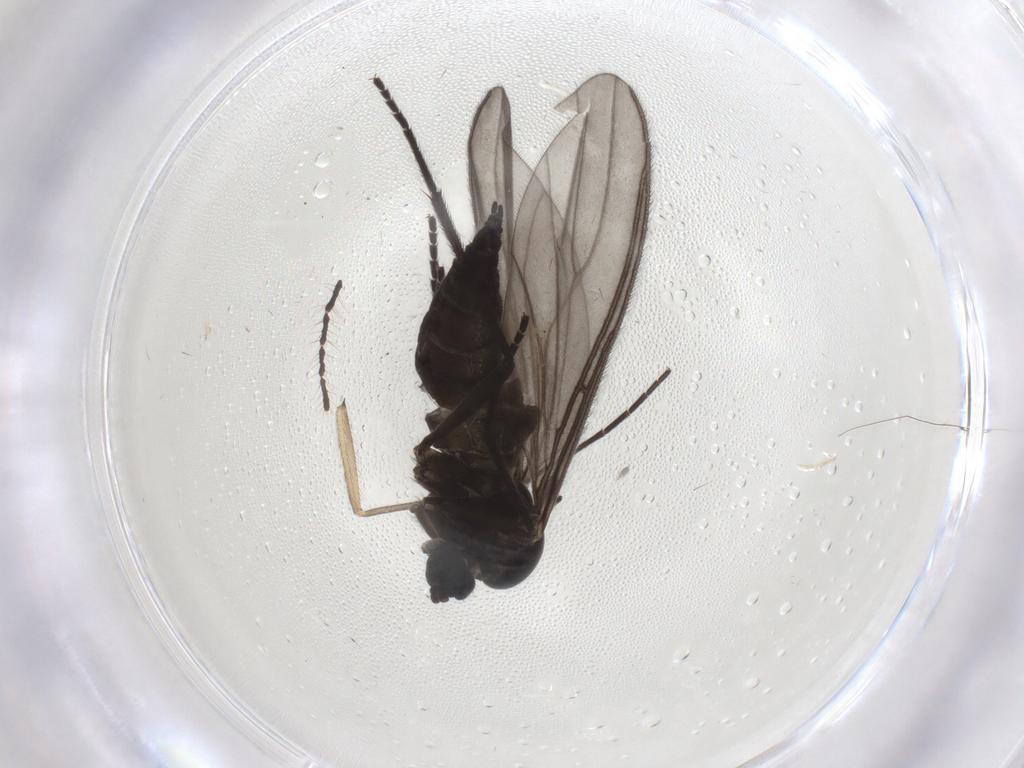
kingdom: Animalia
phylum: Arthropoda
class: Insecta
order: Diptera
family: Sciaridae
